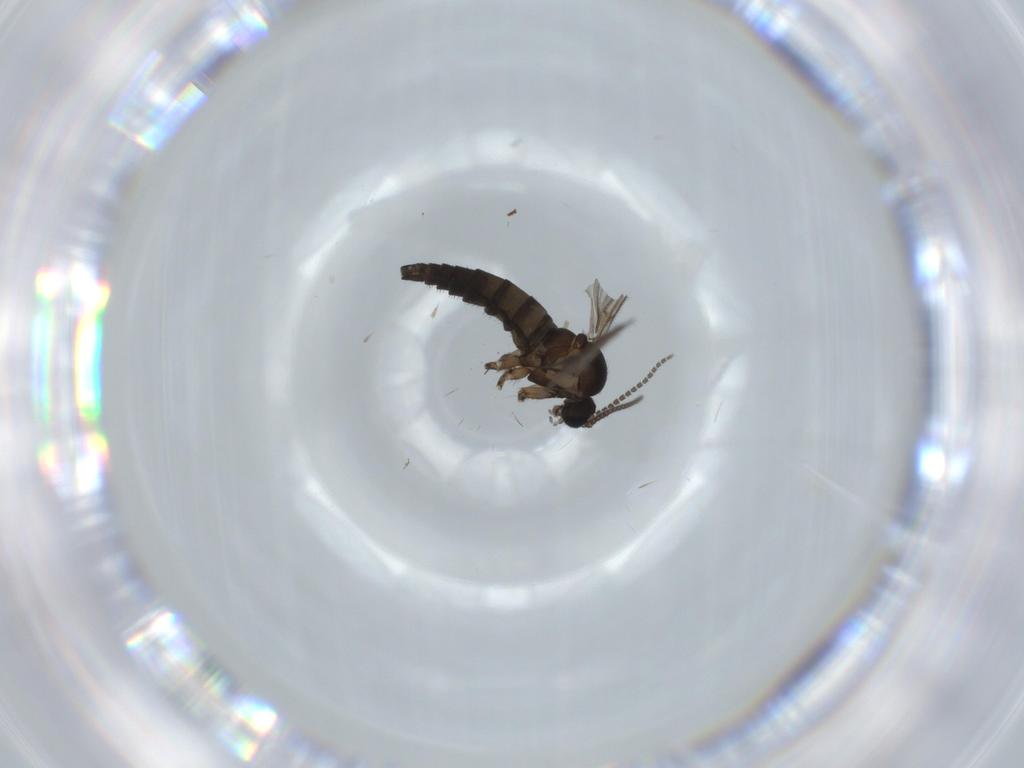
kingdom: Animalia
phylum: Arthropoda
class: Insecta
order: Diptera
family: Sciaridae
